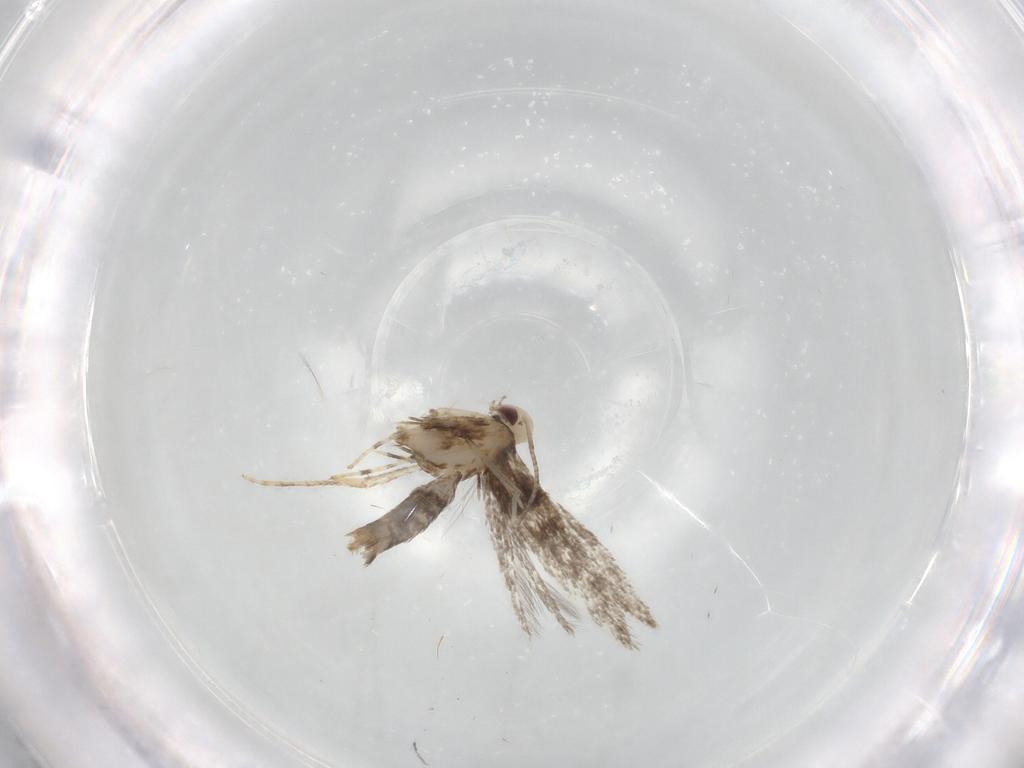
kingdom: Animalia
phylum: Arthropoda
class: Insecta
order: Lepidoptera
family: Gracillariidae
